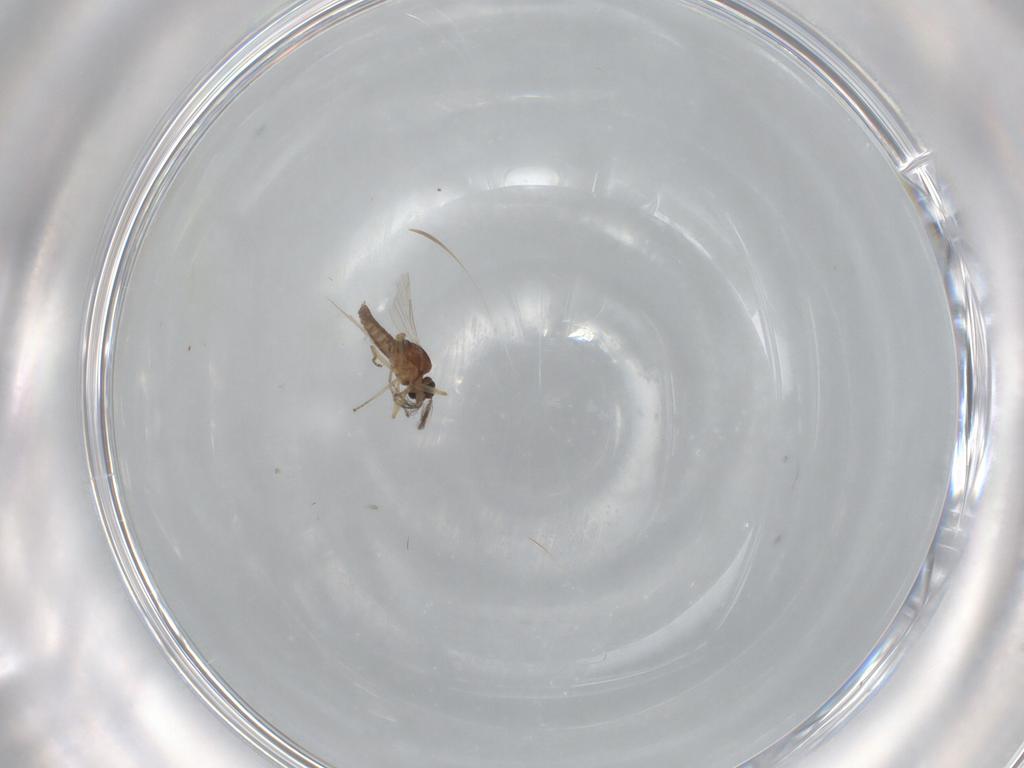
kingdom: Animalia
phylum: Arthropoda
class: Insecta
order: Diptera
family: Psychodidae
